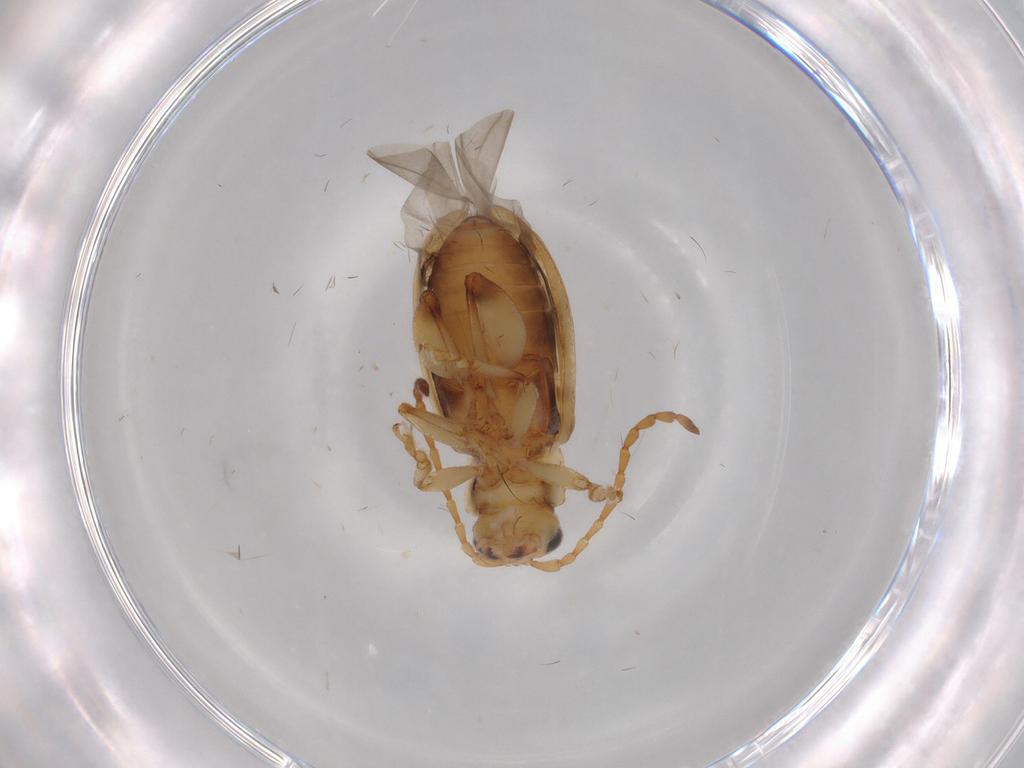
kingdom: Animalia
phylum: Arthropoda
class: Insecta
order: Coleoptera
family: Chrysomelidae
